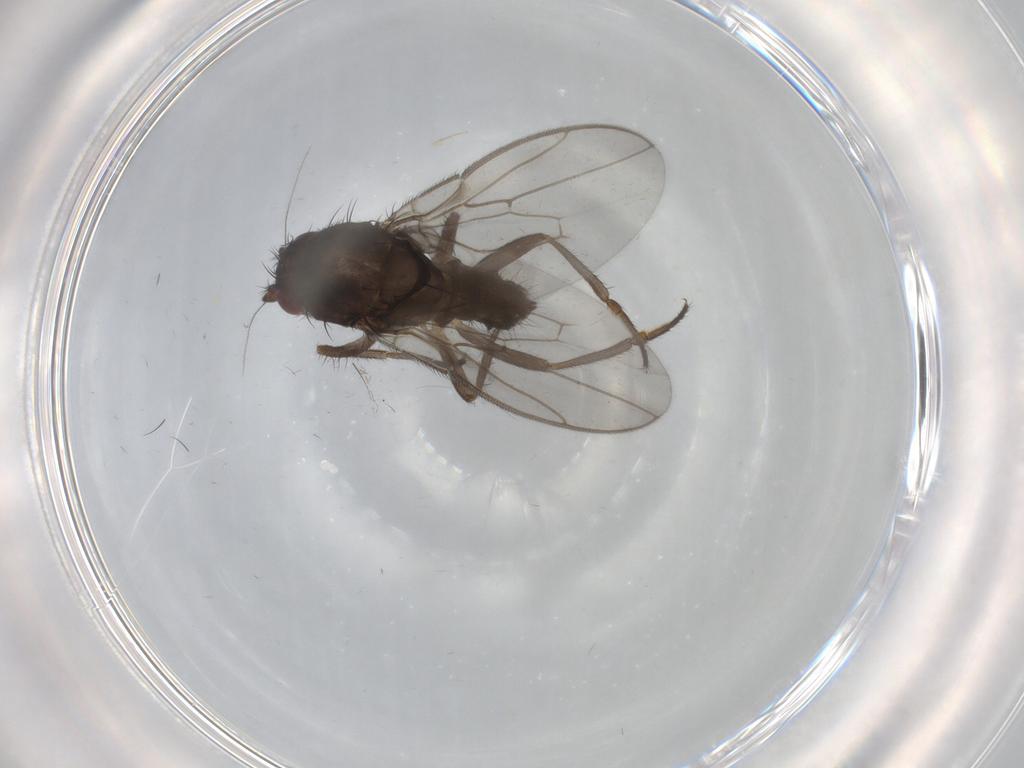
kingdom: Animalia
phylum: Arthropoda
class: Insecta
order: Diptera
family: Sphaeroceridae
